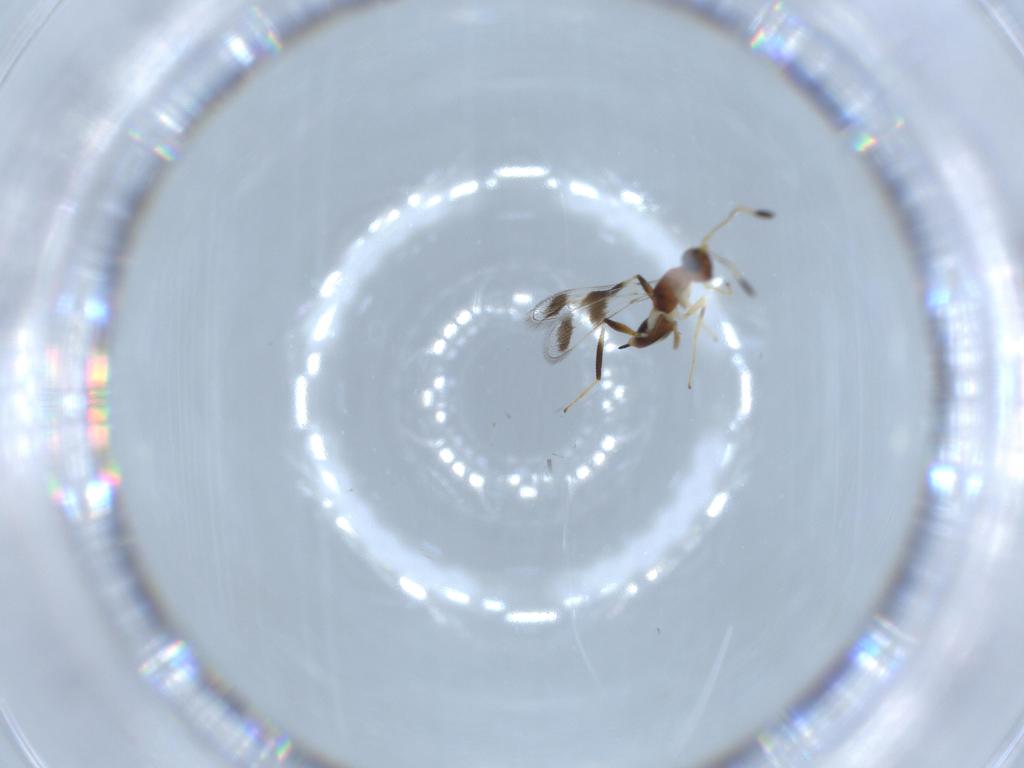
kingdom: Animalia
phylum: Arthropoda
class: Insecta
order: Hymenoptera
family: Mymaridae
